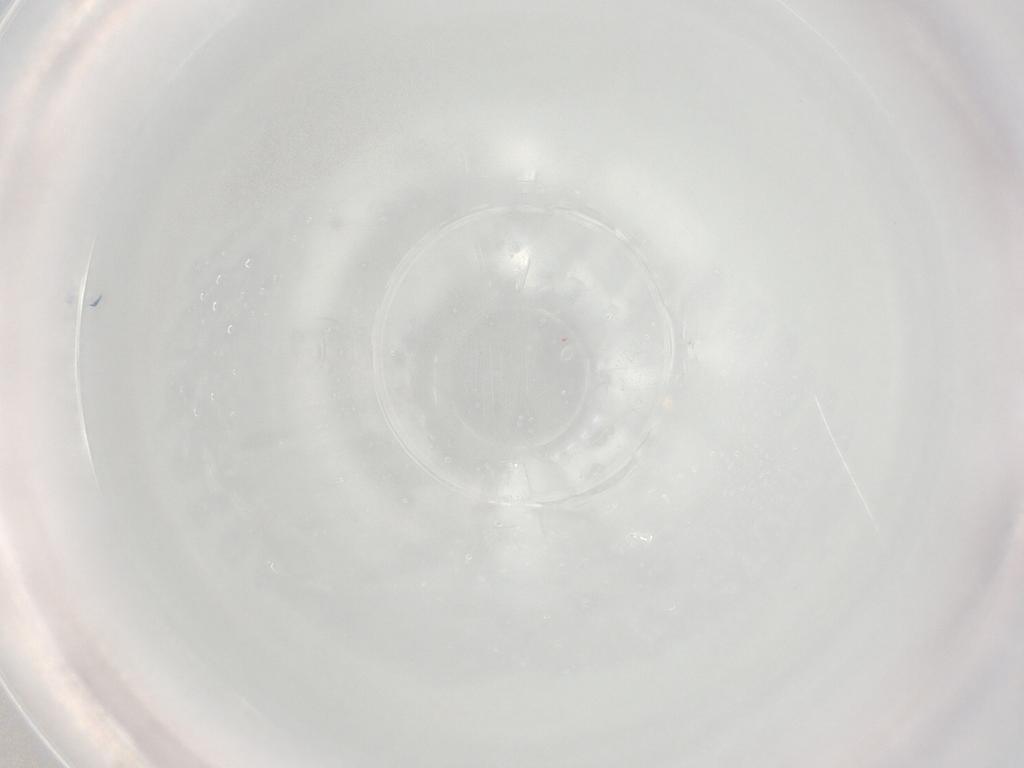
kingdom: Animalia
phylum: Arthropoda
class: Insecta
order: Diptera
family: Cecidomyiidae
